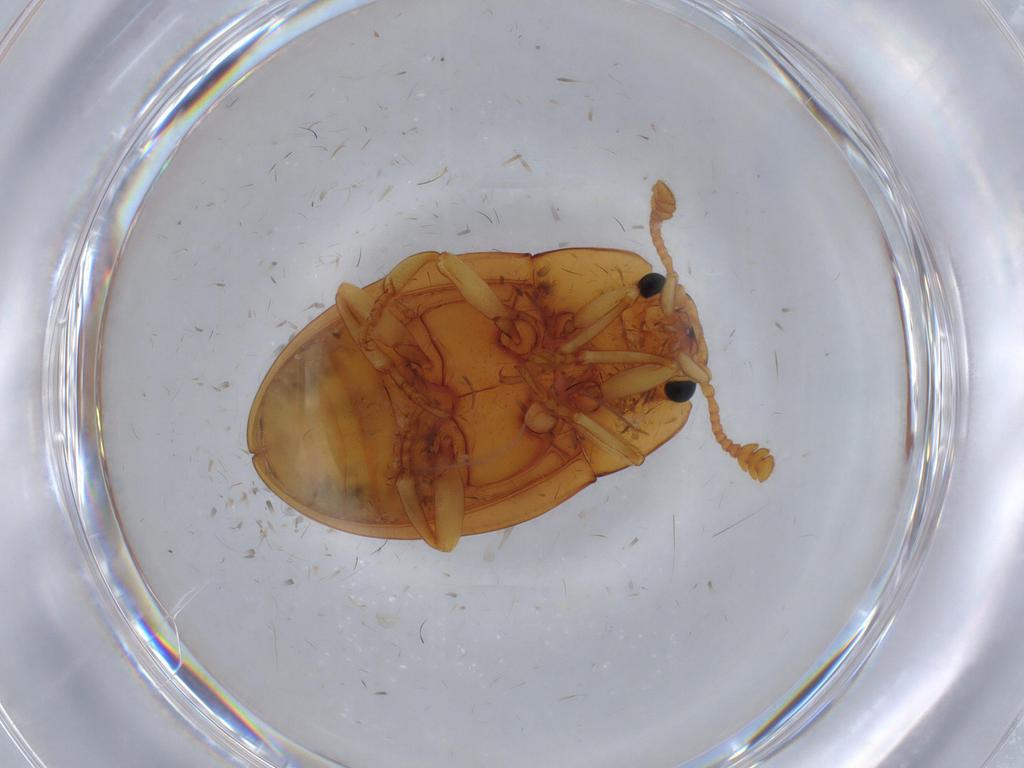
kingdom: Animalia
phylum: Arthropoda
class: Insecta
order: Coleoptera
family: Erotylidae
